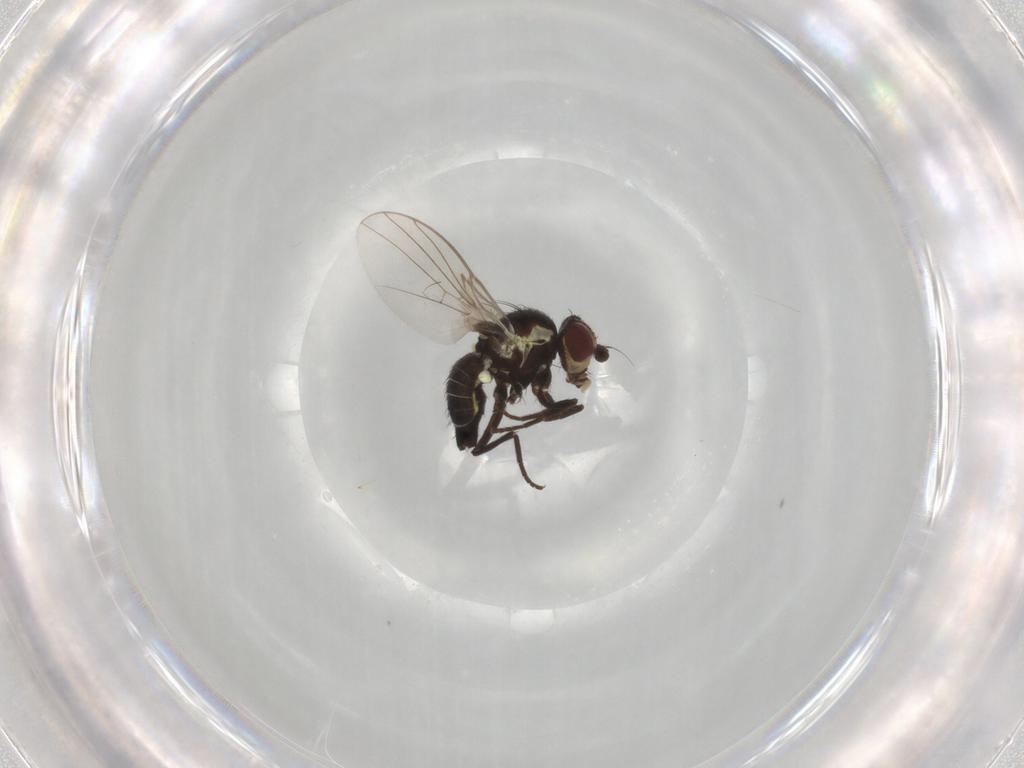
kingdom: Animalia
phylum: Arthropoda
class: Insecta
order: Diptera
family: Agromyzidae
